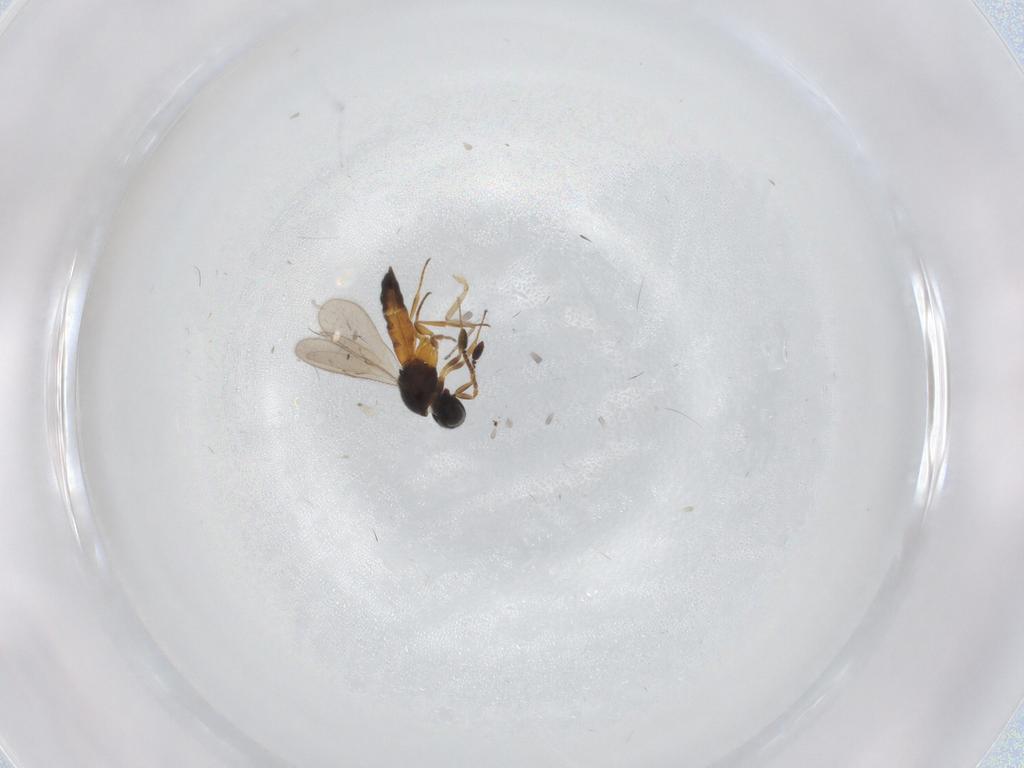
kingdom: Animalia
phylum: Arthropoda
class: Insecta
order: Hymenoptera
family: Scelionidae
